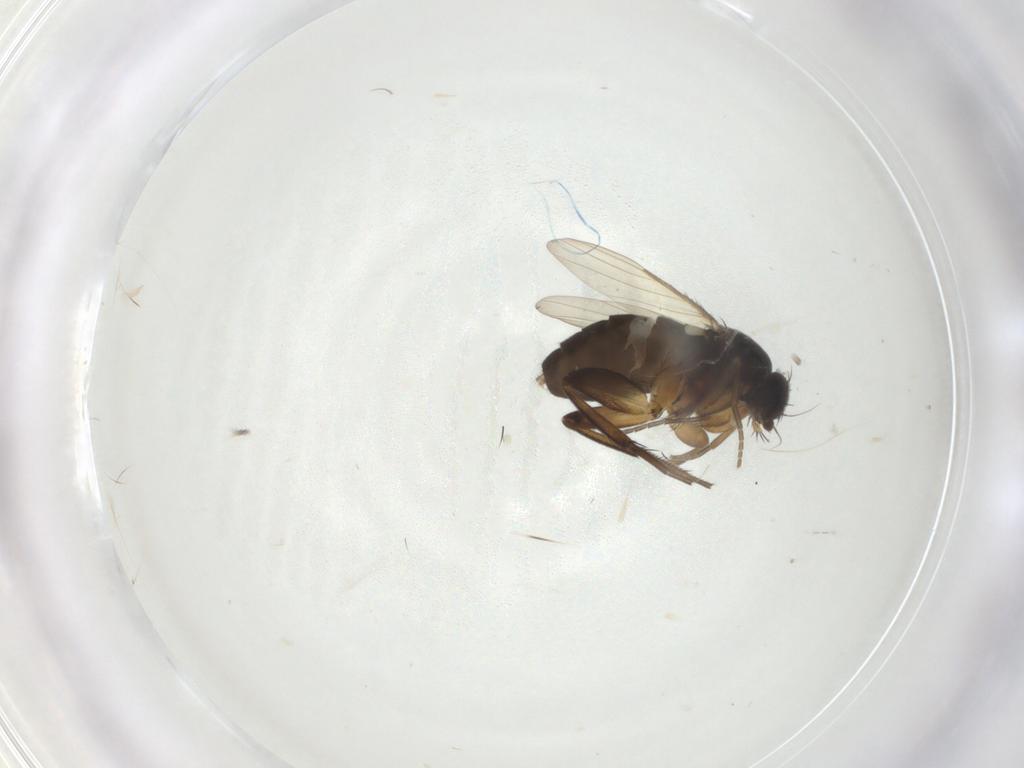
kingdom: Animalia
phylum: Arthropoda
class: Insecta
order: Diptera
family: Phoridae
